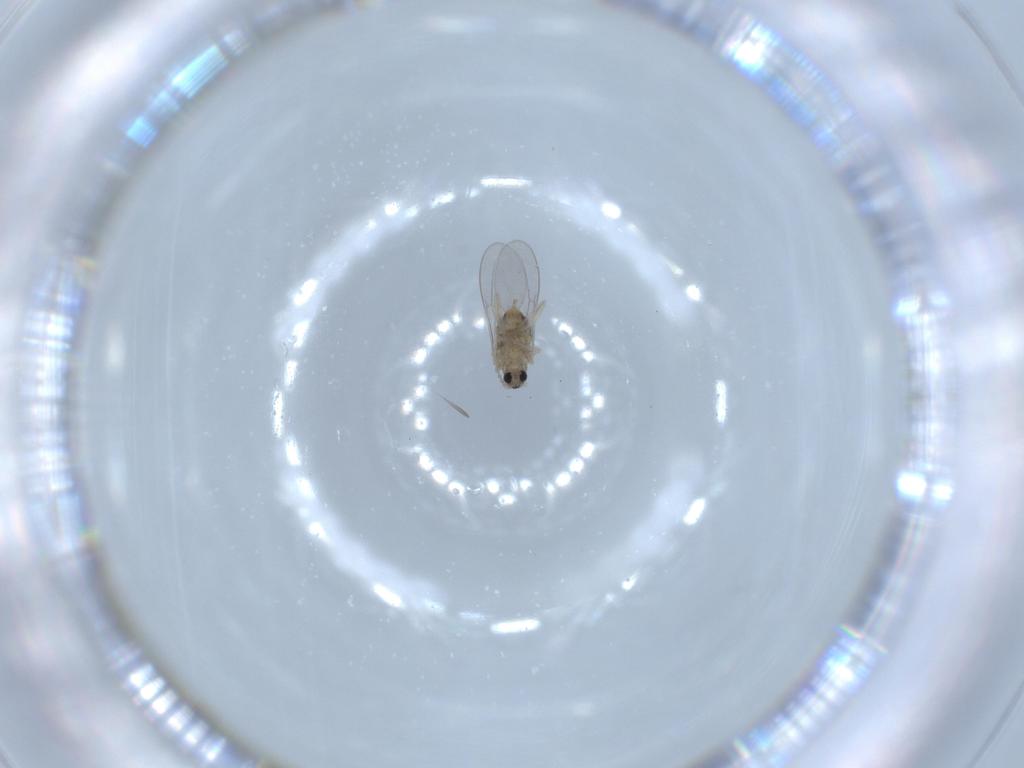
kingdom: Animalia
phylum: Arthropoda
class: Insecta
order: Diptera
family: Cecidomyiidae
